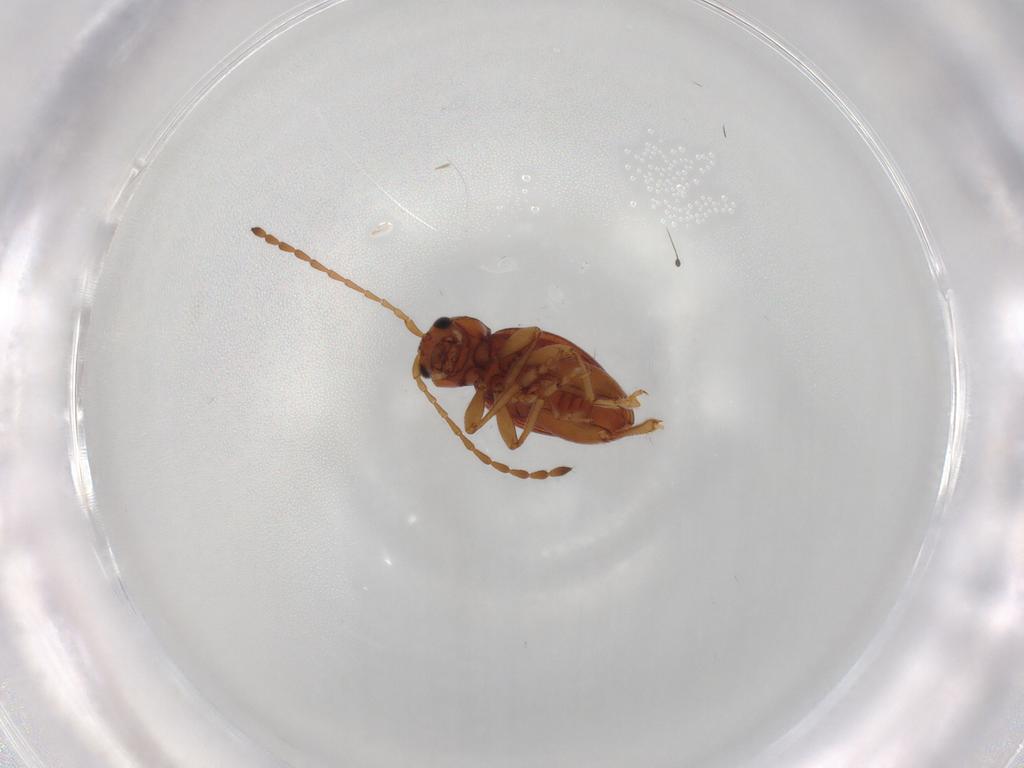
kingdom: Animalia
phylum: Arthropoda
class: Insecta
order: Coleoptera
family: Chrysomelidae
